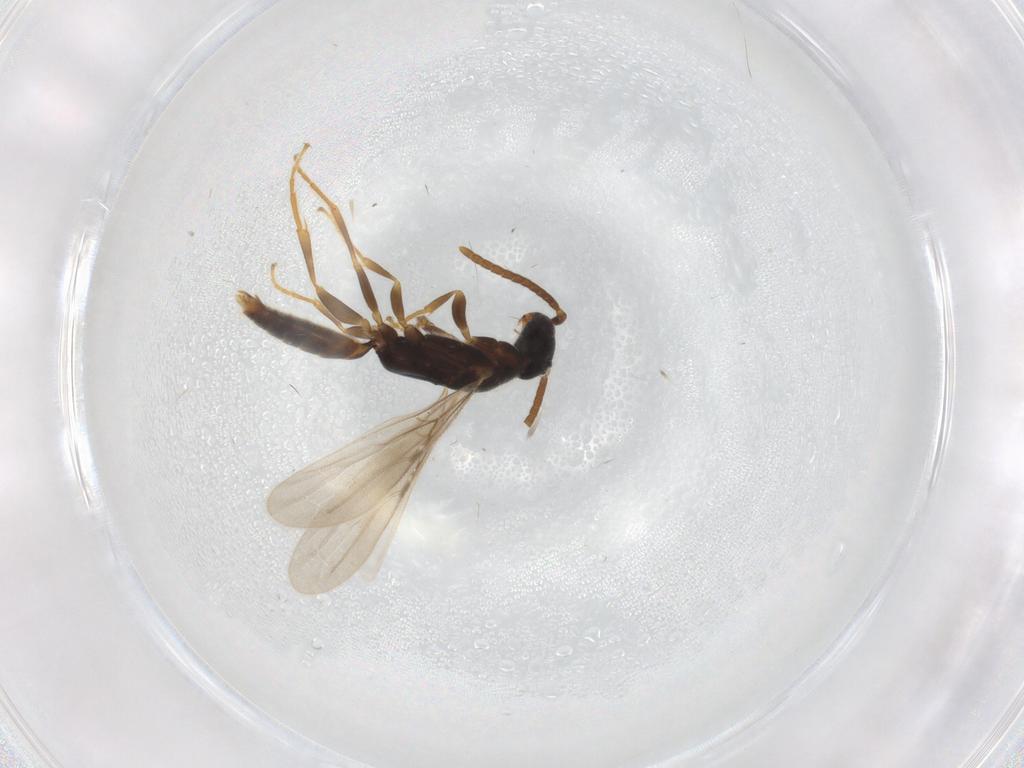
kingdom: Animalia
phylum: Arthropoda
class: Insecta
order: Hymenoptera
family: Bethylidae
